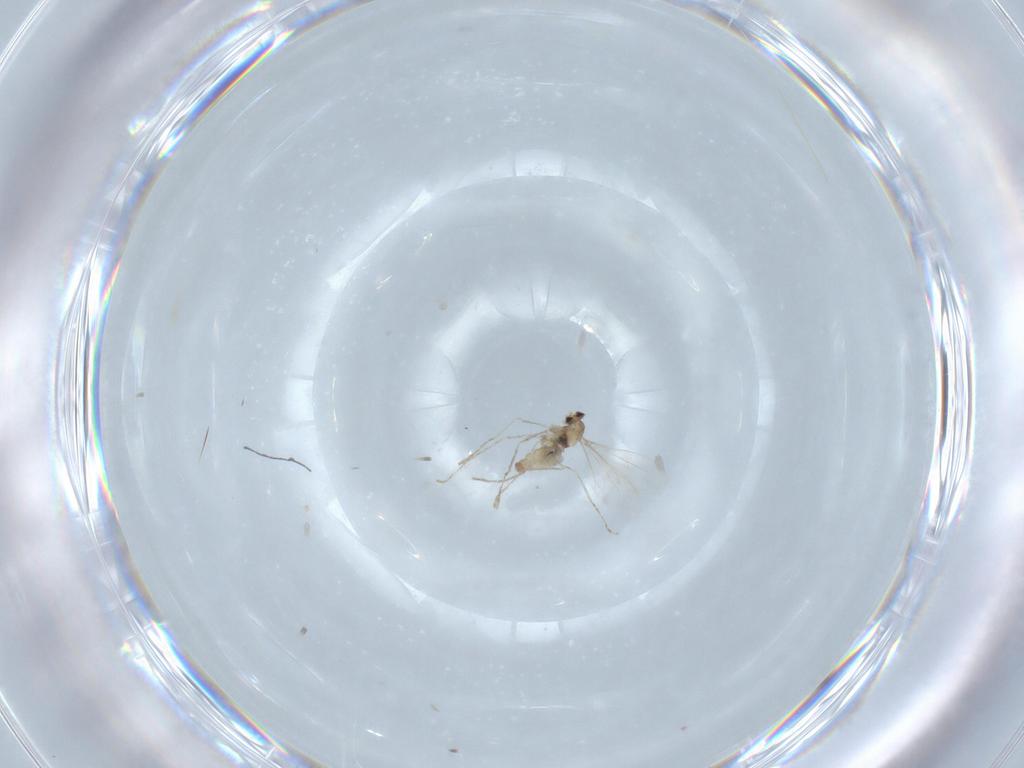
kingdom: Animalia
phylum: Arthropoda
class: Insecta
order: Diptera
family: Cecidomyiidae
